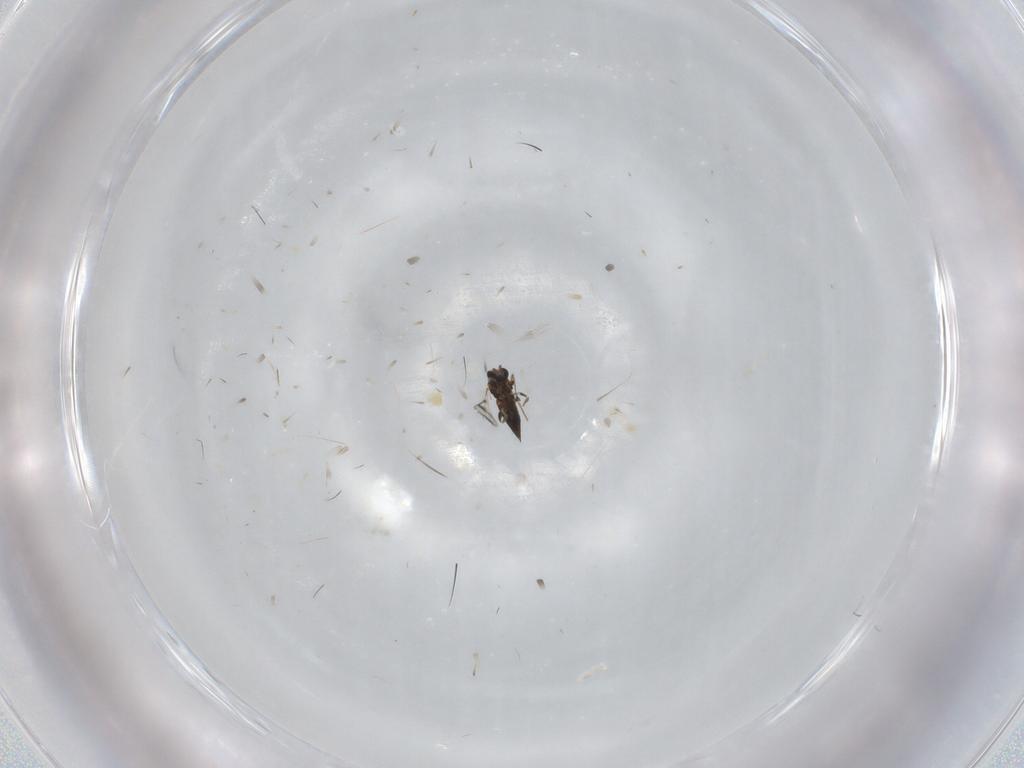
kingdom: Animalia
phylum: Arthropoda
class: Insecta
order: Hymenoptera
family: Trichogrammatidae
